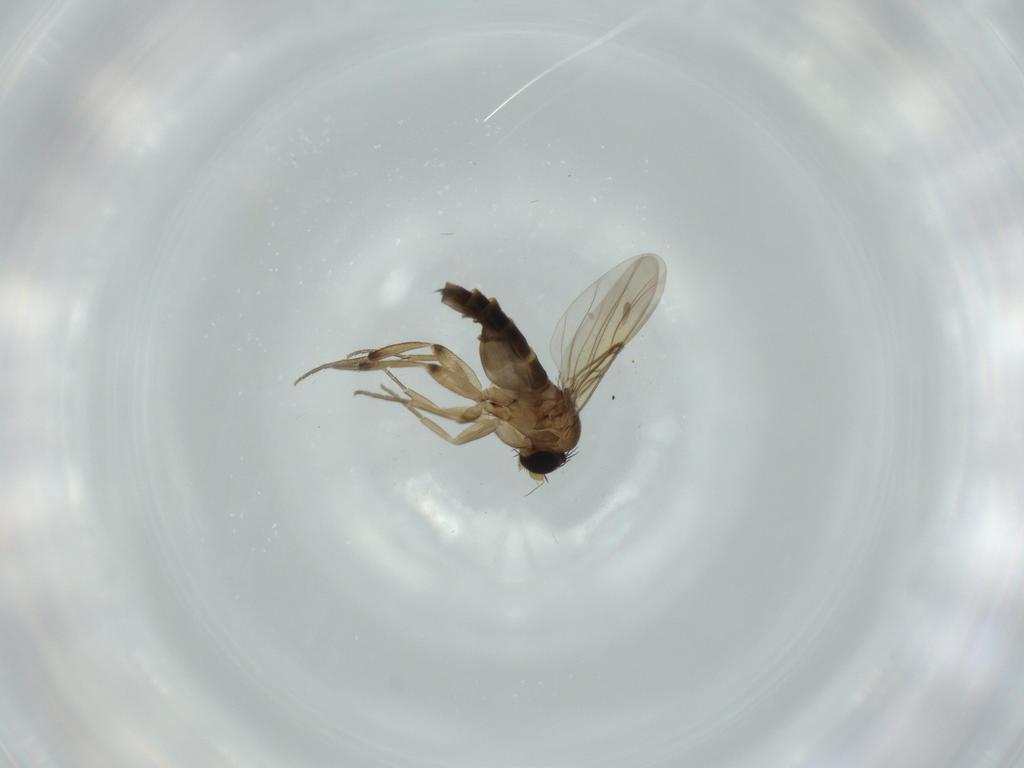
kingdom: Animalia
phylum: Arthropoda
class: Insecta
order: Diptera
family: Phoridae
